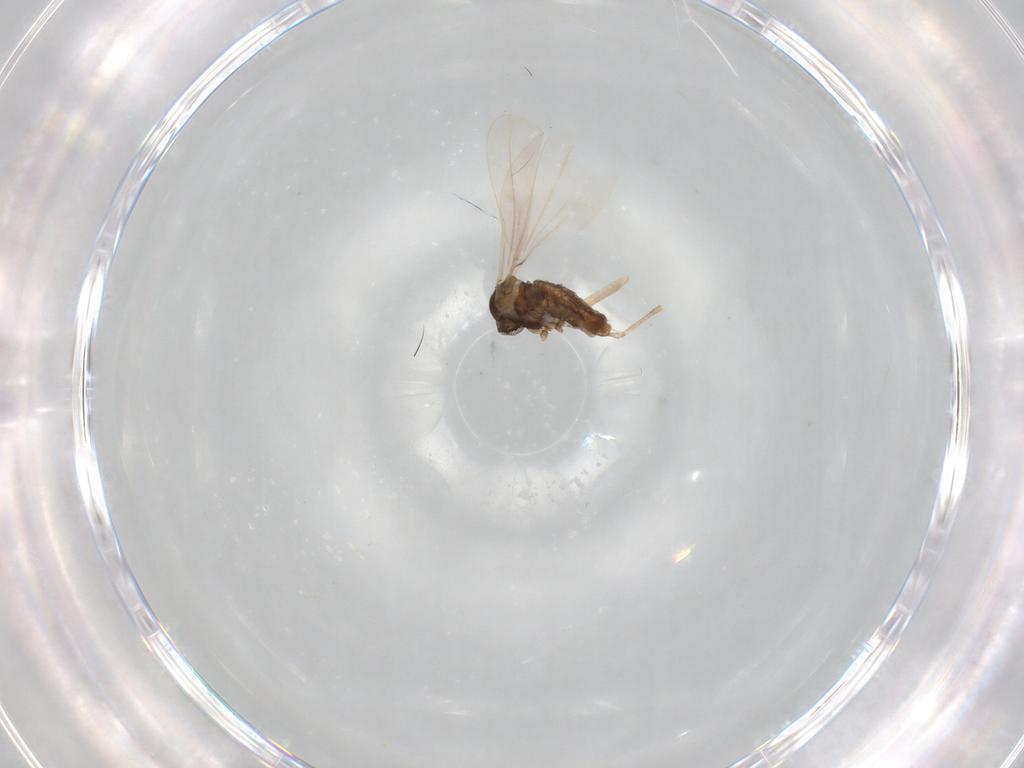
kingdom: Animalia
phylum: Arthropoda
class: Insecta
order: Diptera
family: Cecidomyiidae
